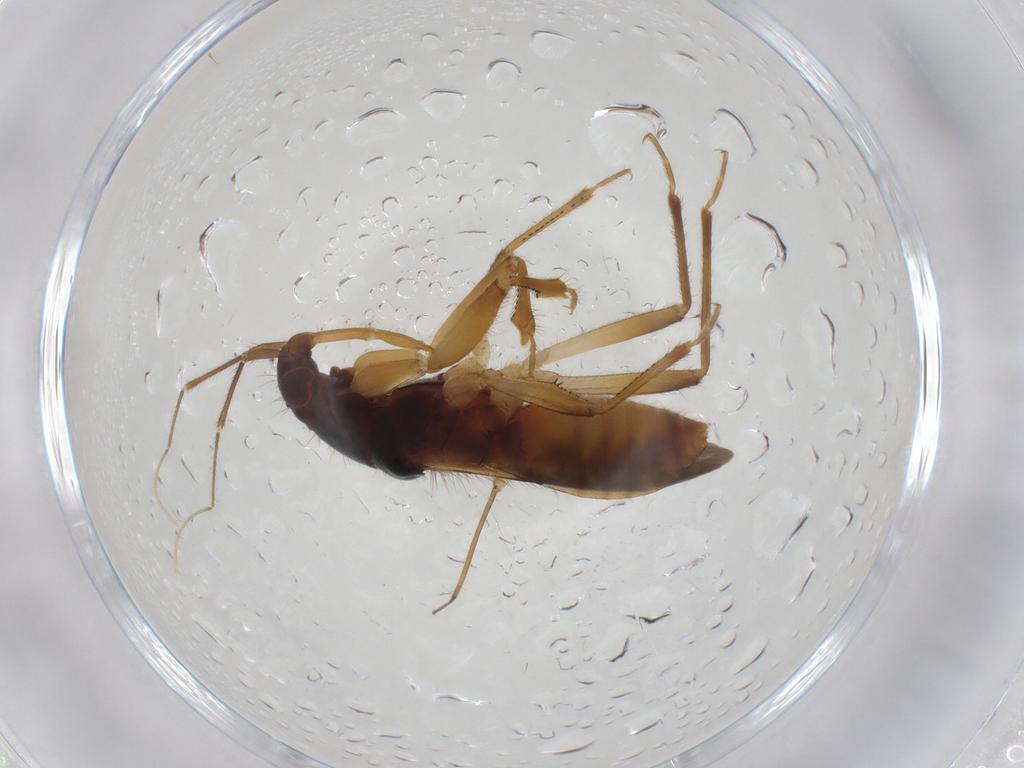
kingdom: Animalia
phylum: Arthropoda
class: Insecta
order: Hemiptera
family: Nabidae
